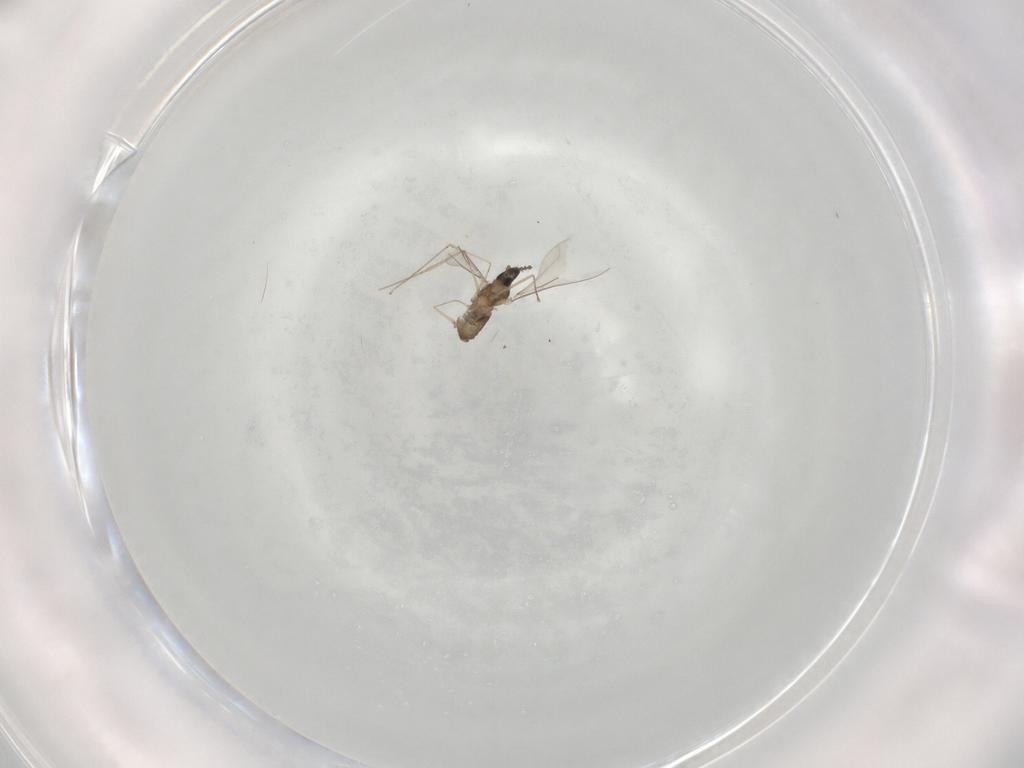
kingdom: Animalia
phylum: Arthropoda
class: Insecta
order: Diptera
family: Cecidomyiidae
